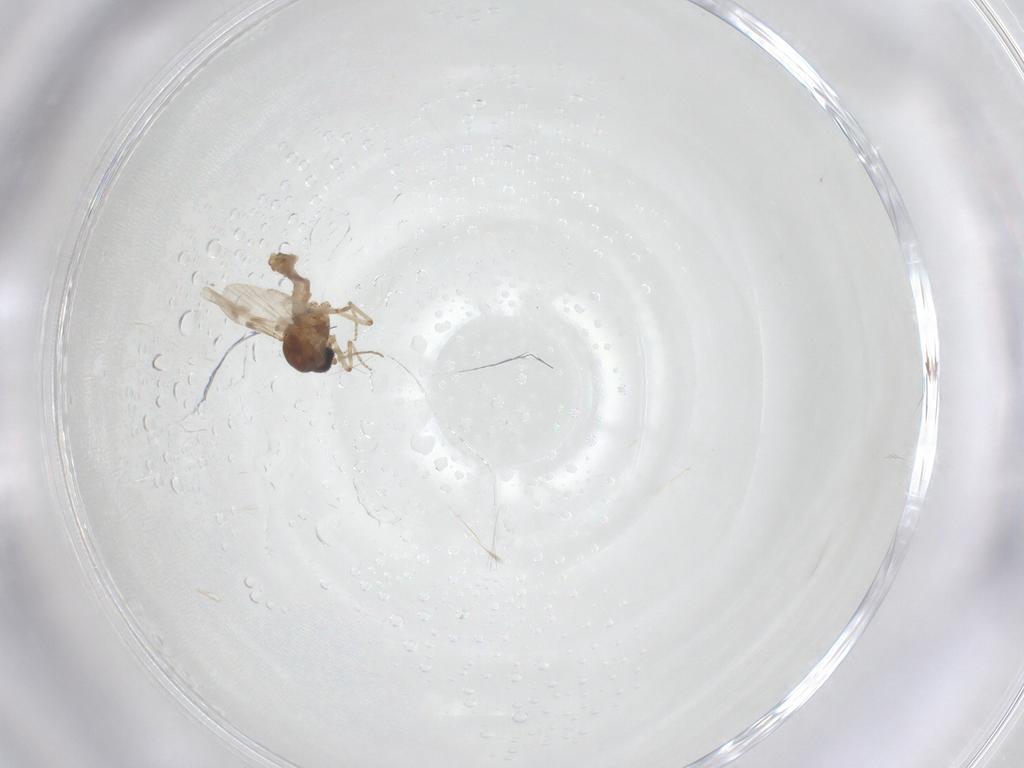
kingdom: Animalia
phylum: Arthropoda
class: Insecta
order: Diptera
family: Ceratopogonidae
